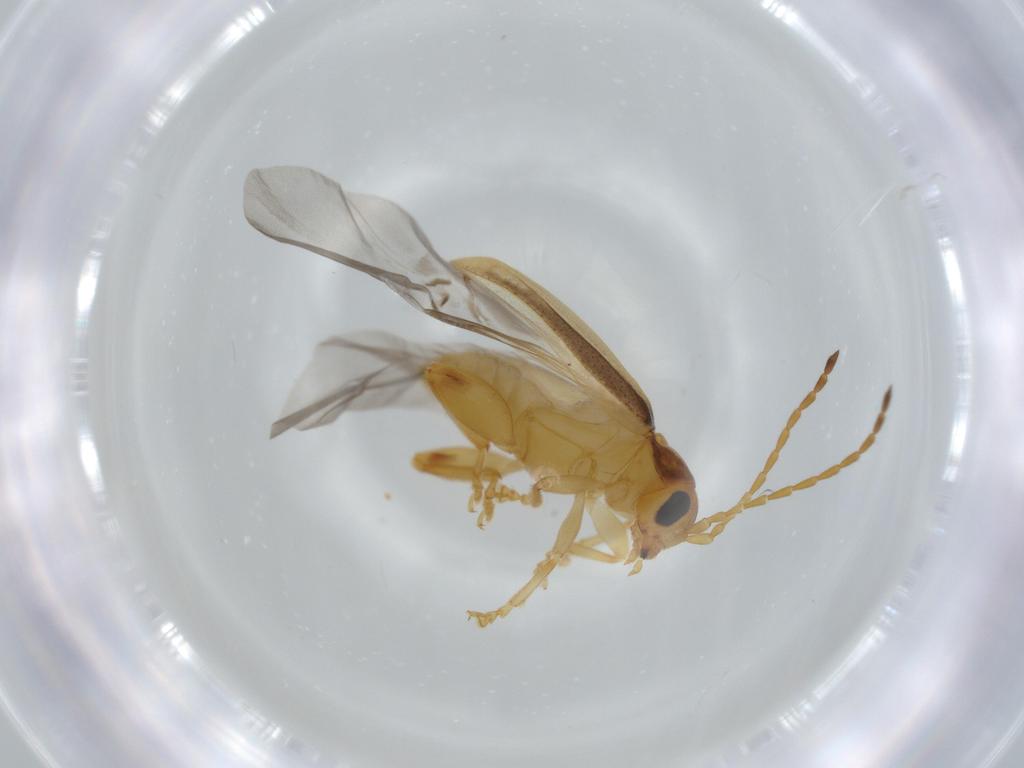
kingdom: Animalia
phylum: Arthropoda
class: Insecta
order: Coleoptera
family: Chrysomelidae
